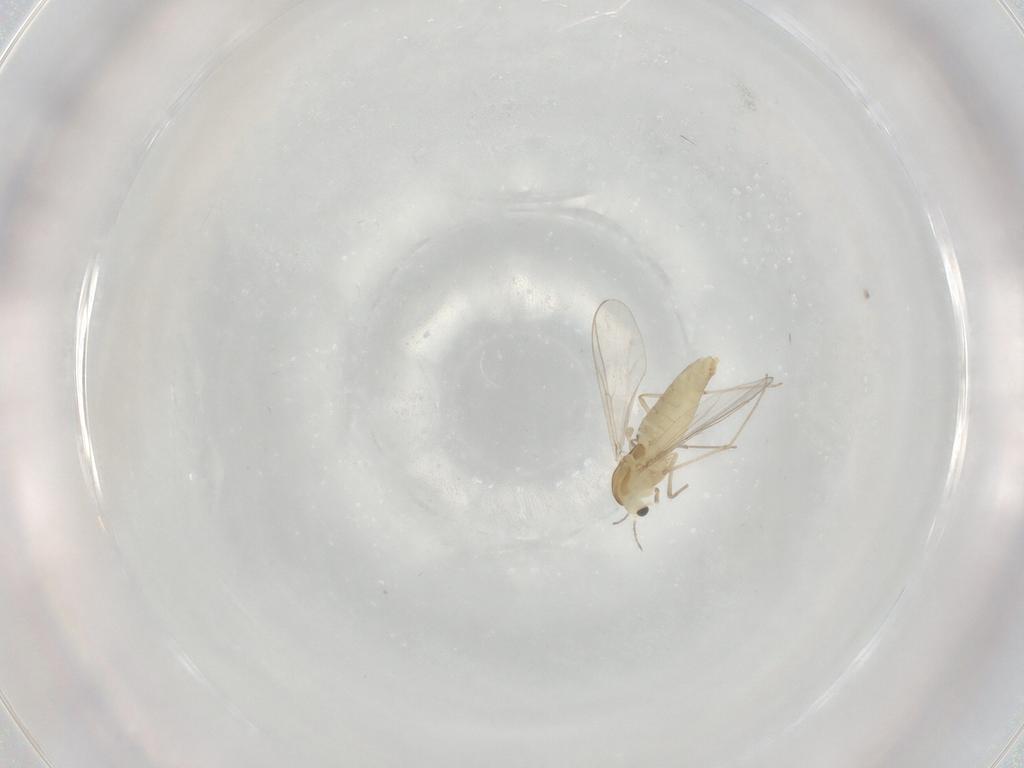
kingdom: Animalia
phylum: Arthropoda
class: Insecta
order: Diptera
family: Chironomidae
